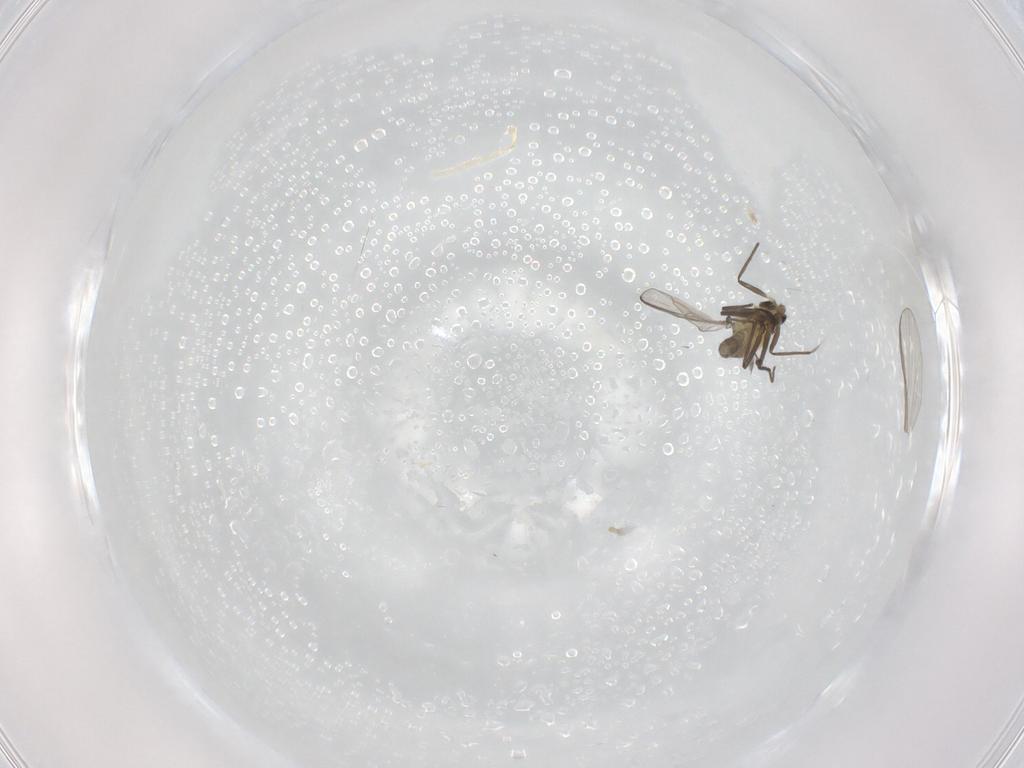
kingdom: Animalia
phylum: Arthropoda
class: Insecta
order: Diptera
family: Chironomidae
